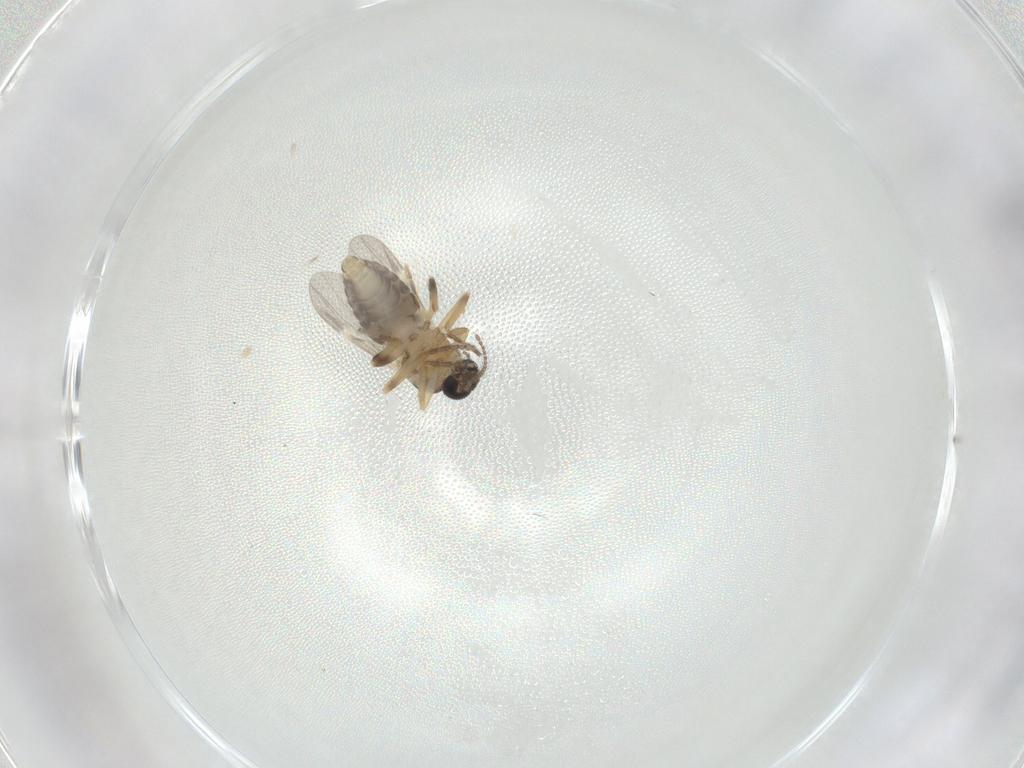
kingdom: Animalia
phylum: Arthropoda
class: Insecta
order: Diptera
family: Ceratopogonidae
